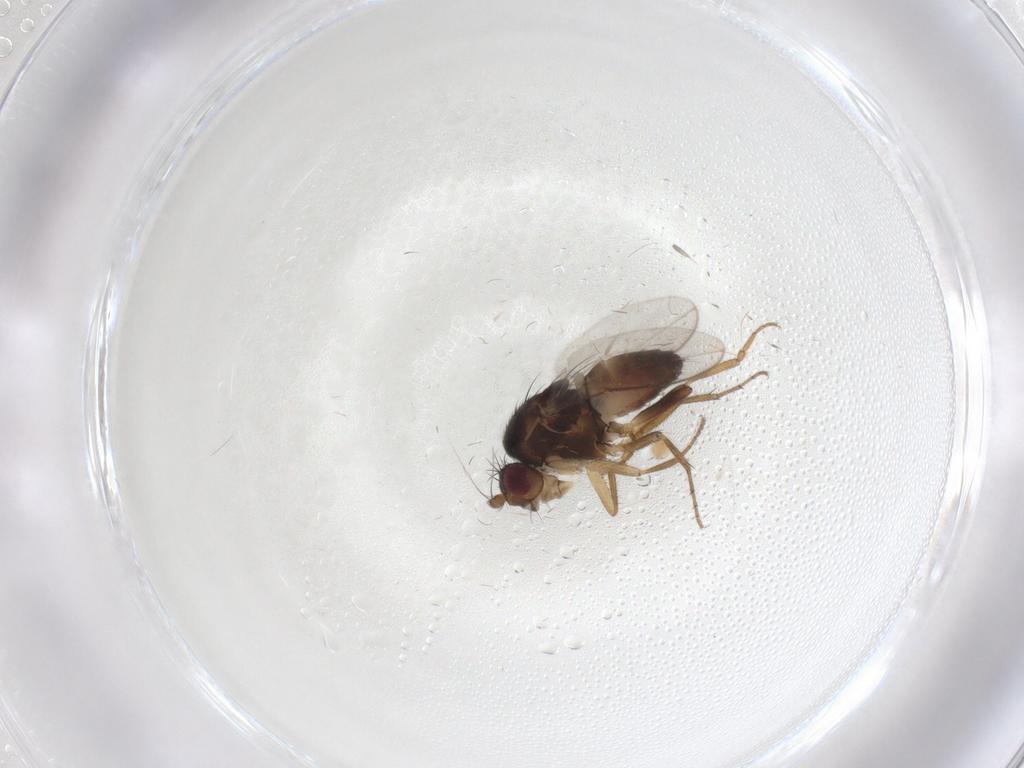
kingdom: Animalia
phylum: Arthropoda
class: Insecta
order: Diptera
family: Sphaeroceridae
